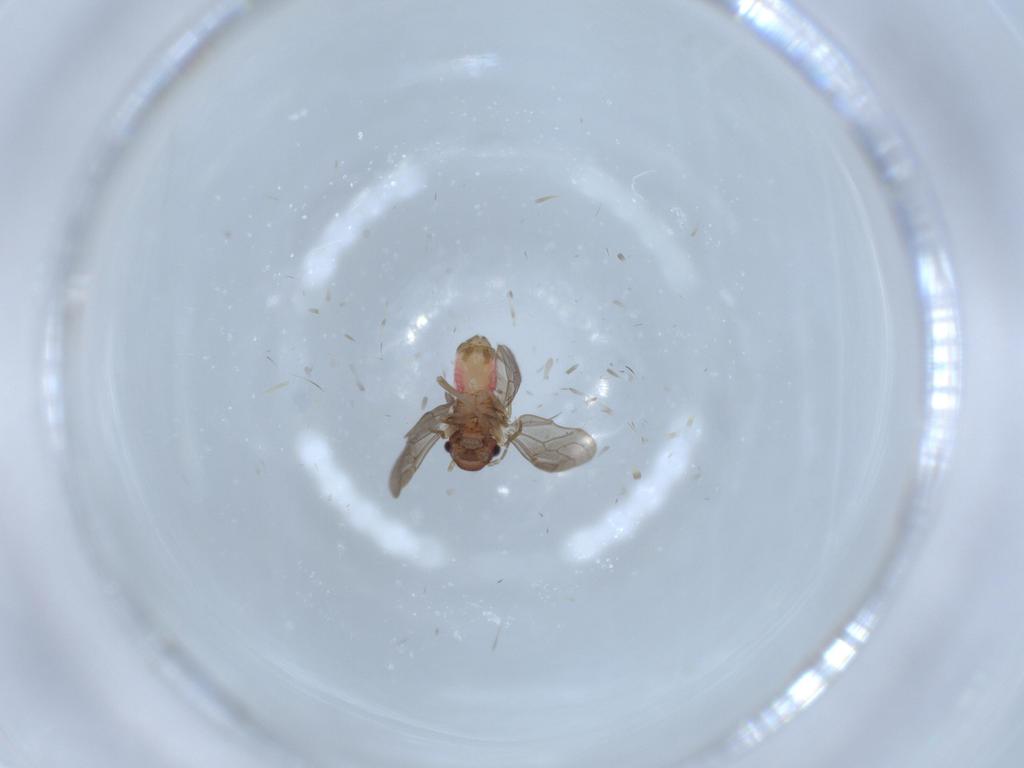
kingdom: Animalia
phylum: Arthropoda
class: Insecta
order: Psocodea
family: Asiopsocidae
